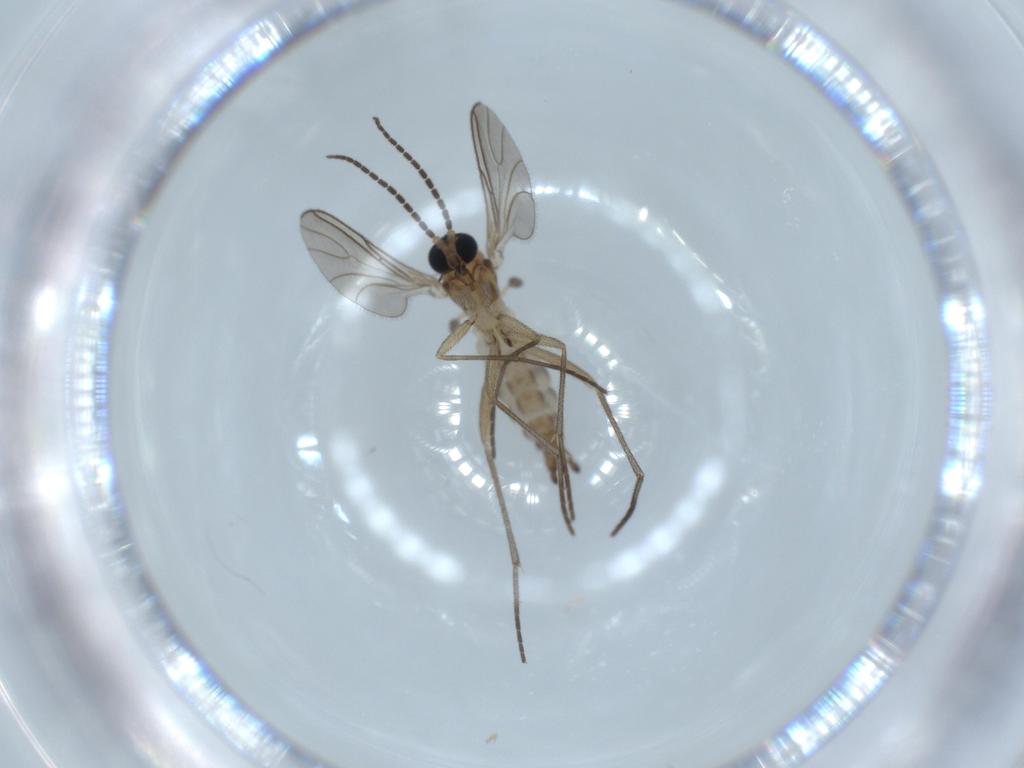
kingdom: Animalia
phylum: Arthropoda
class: Insecta
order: Diptera
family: Sciaridae
